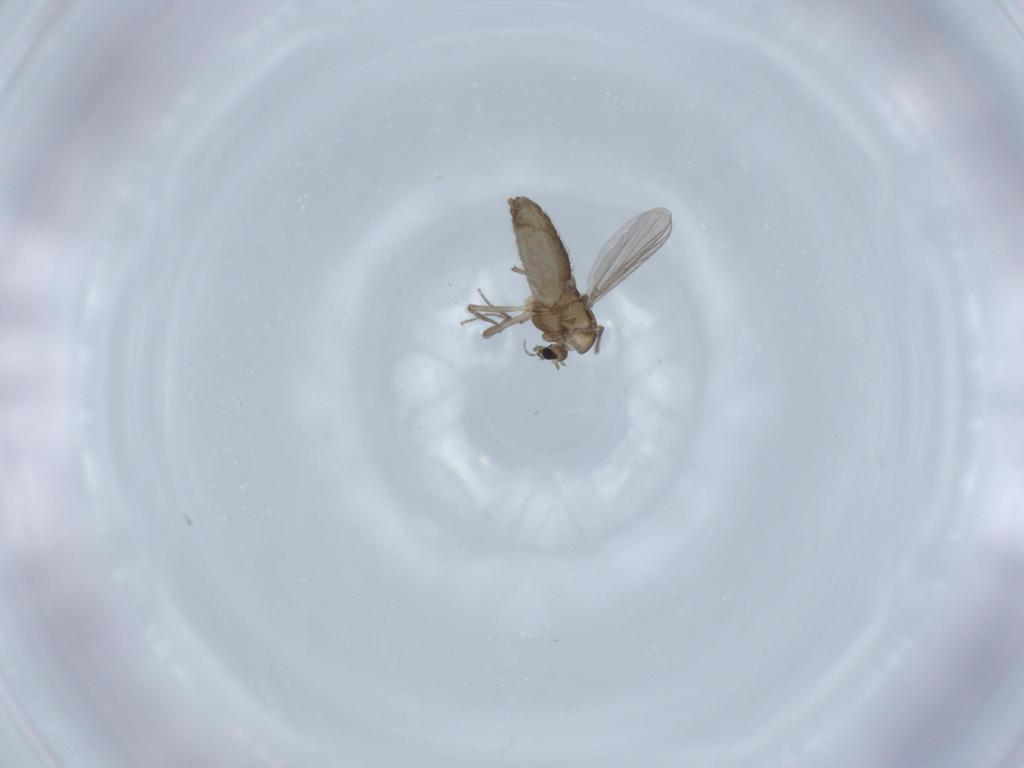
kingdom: Animalia
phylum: Arthropoda
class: Insecta
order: Diptera
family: Chironomidae
